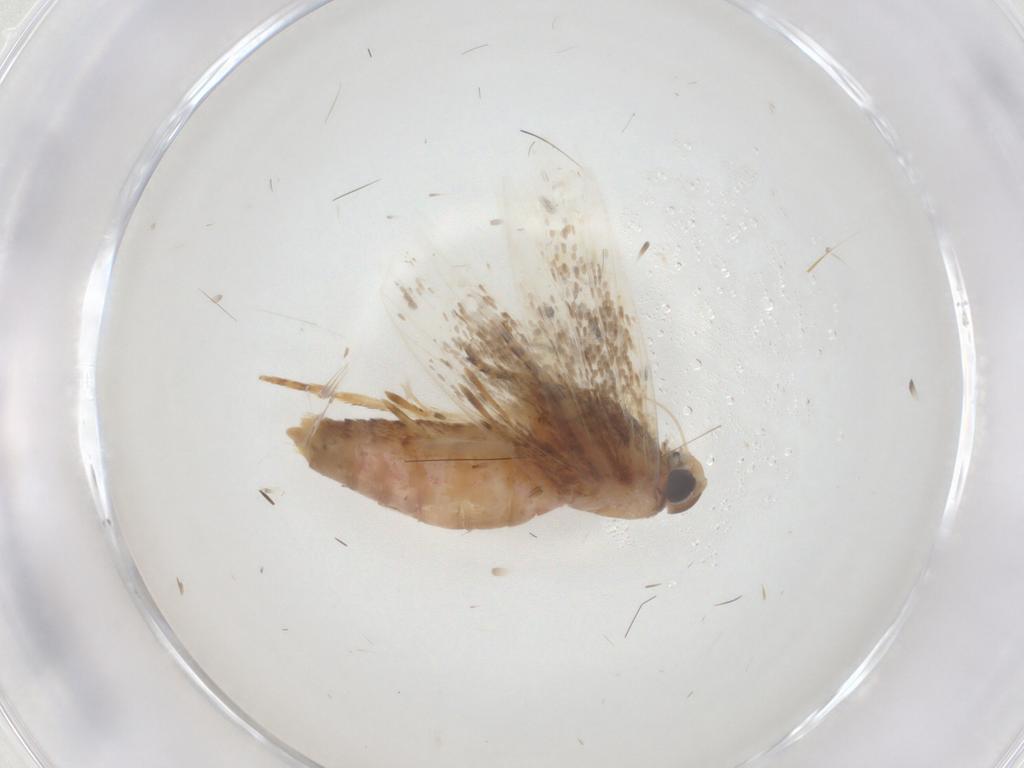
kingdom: Animalia
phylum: Arthropoda
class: Insecta
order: Lepidoptera
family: Gelechiidae
